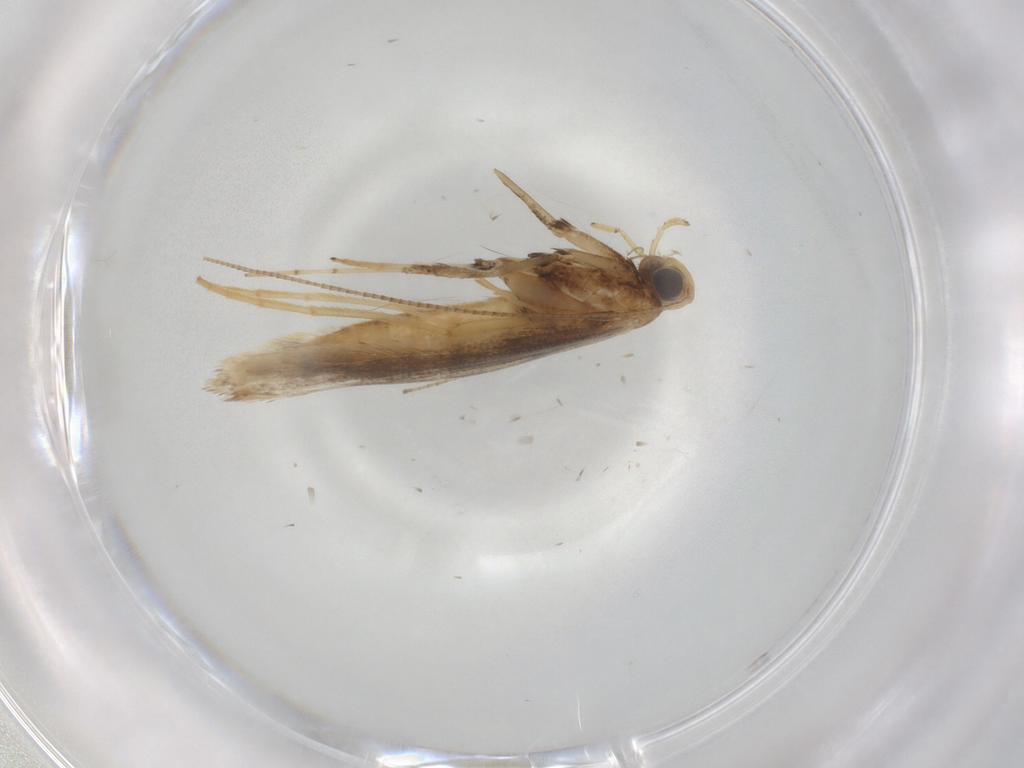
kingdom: Animalia
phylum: Arthropoda
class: Insecta
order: Lepidoptera
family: Gracillariidae
